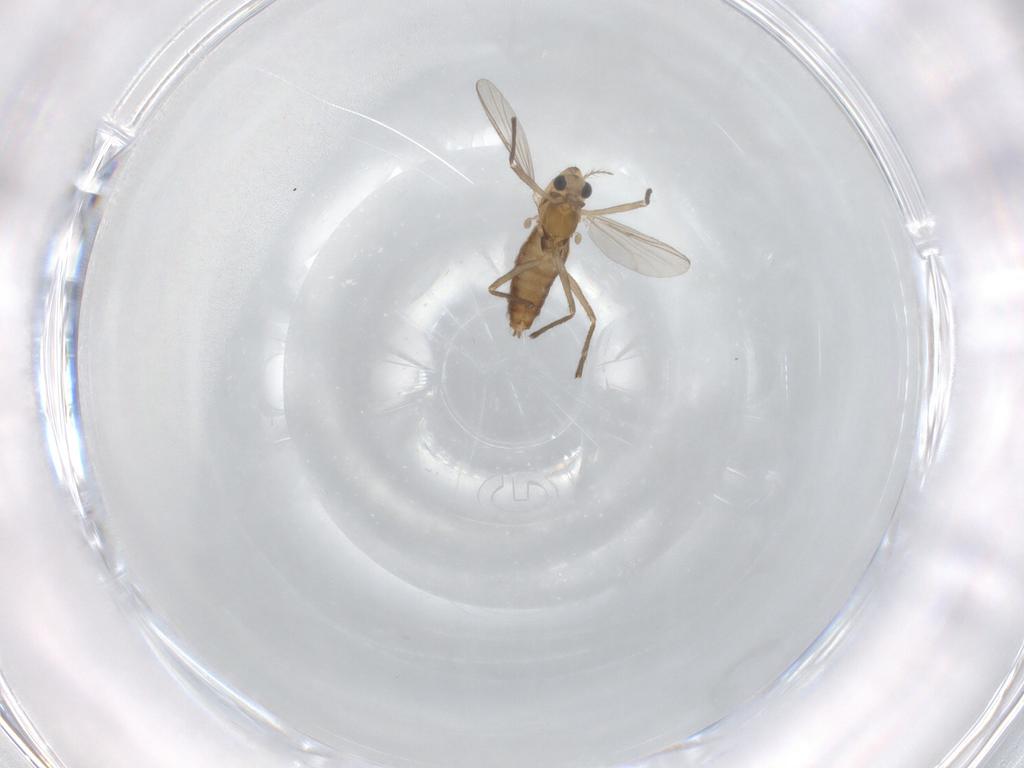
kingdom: Animalia
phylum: Arthropoda
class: Insecta
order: Diptera
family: Chironomidae
